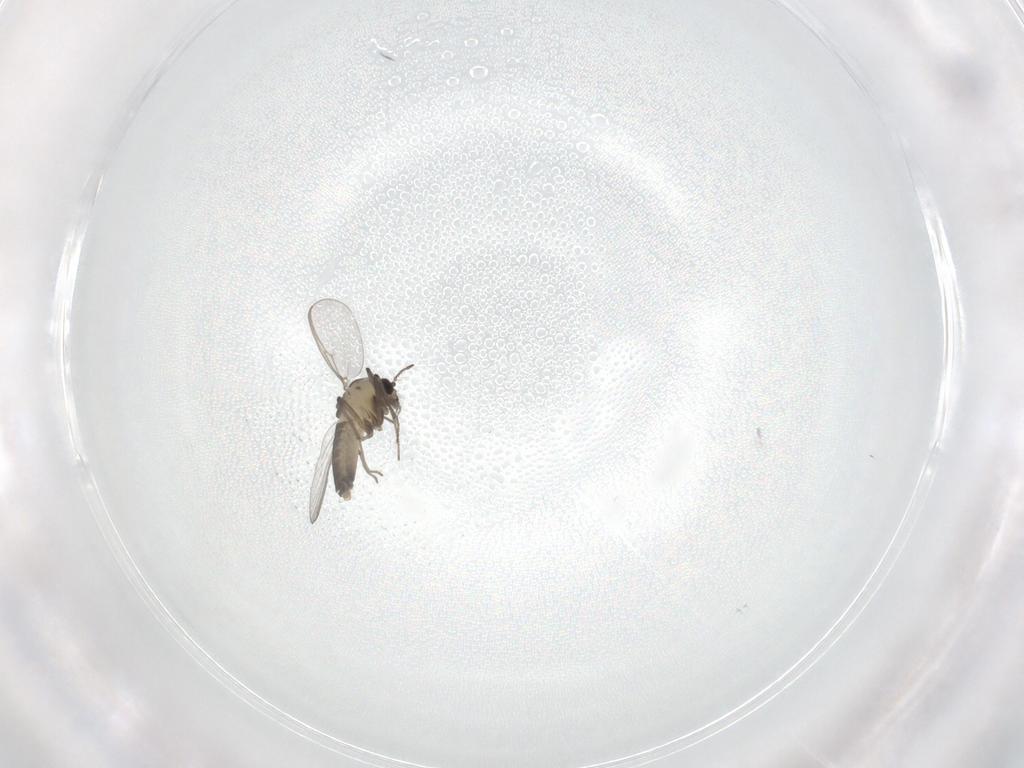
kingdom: Animalia
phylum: Arthropoda
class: Insecta
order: Diptera
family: Chironomidae
